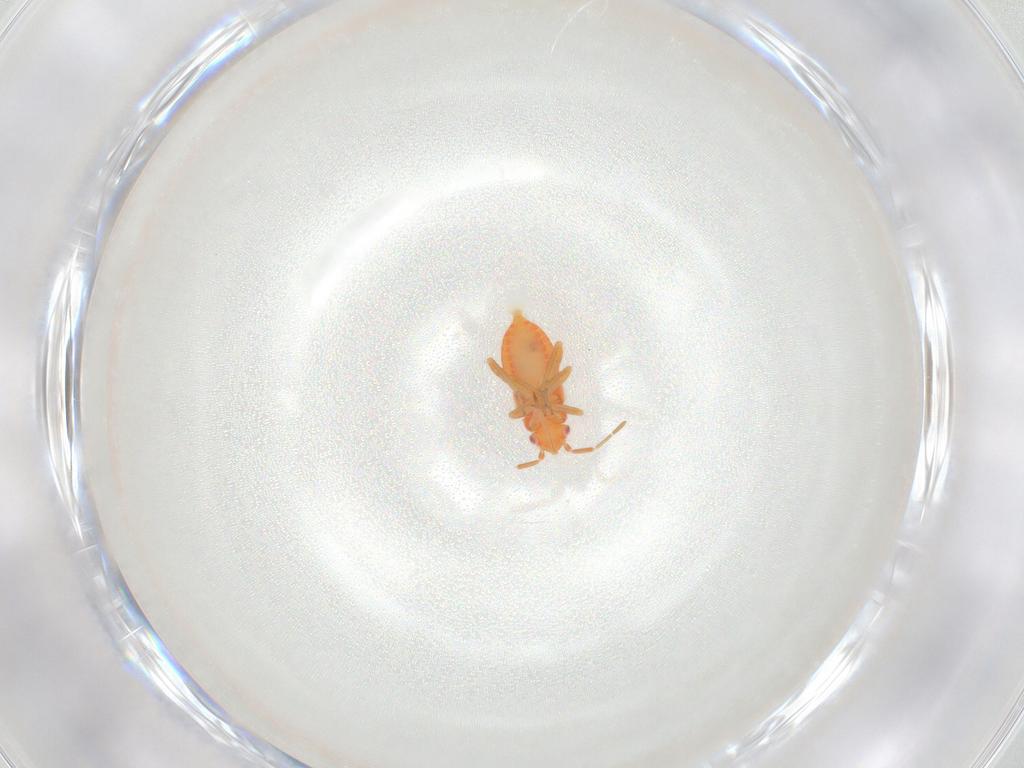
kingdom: Animalia
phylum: Arthropoda
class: Insecta
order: Hemiptera
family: Miridae
